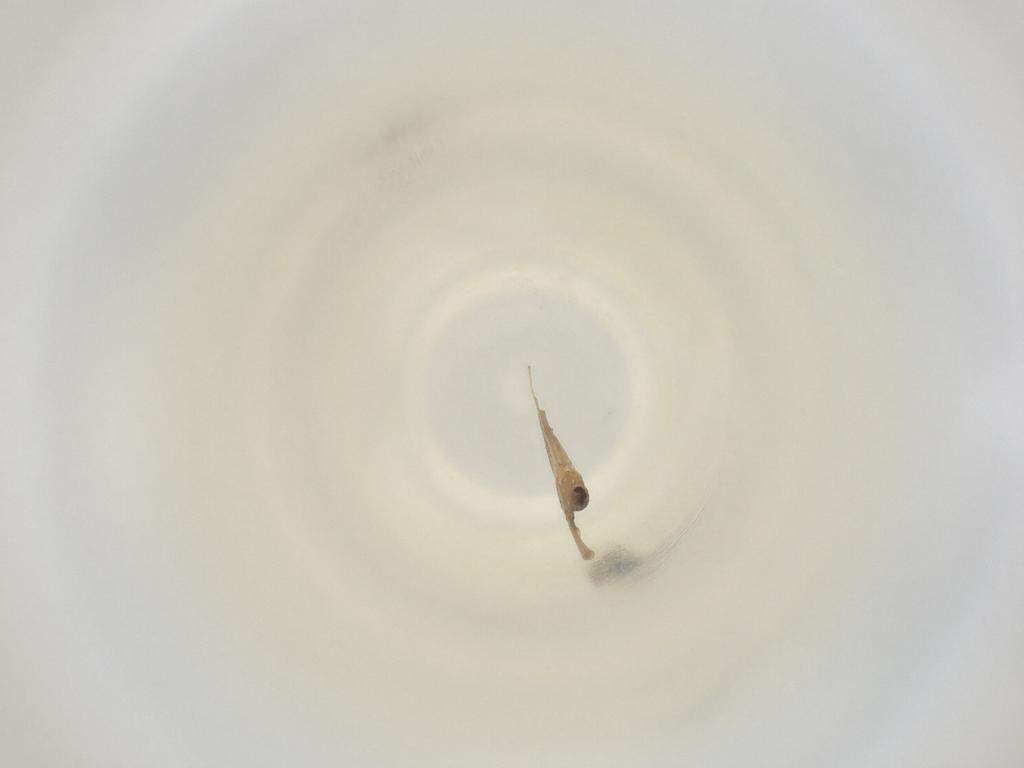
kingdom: Animalia
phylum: Arthropoda
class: Insecta
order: Diptera
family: Cecidomyiidae
